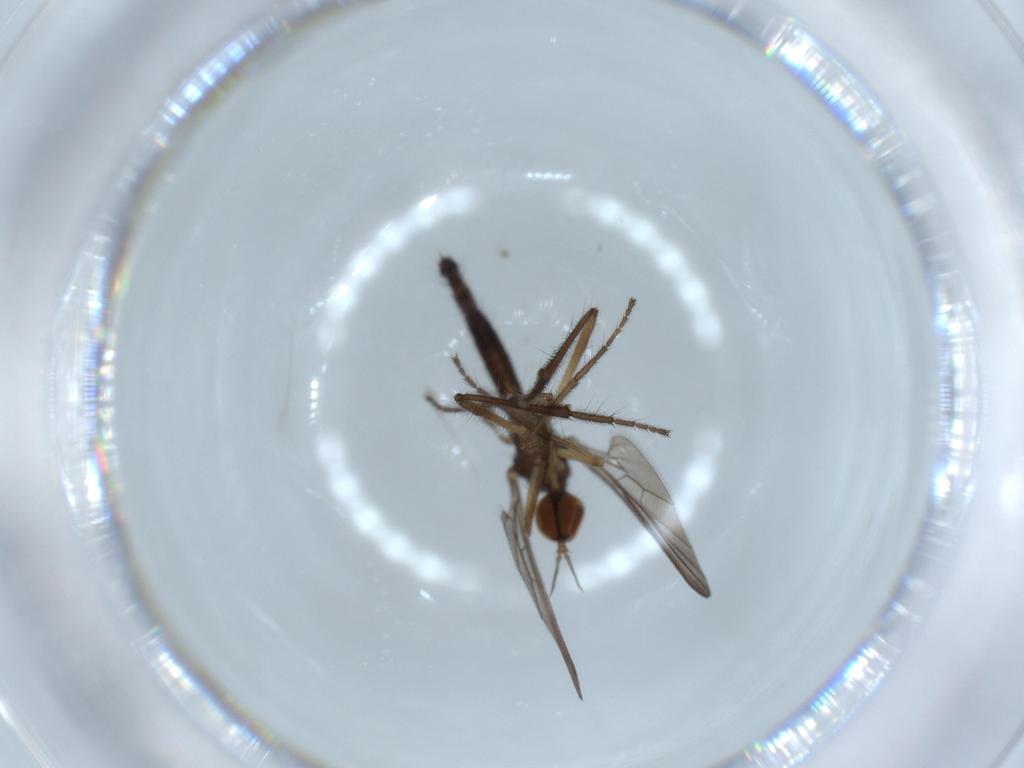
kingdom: Animalia
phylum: Arthropoda
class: Insecta
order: Diptera
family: Empididae
